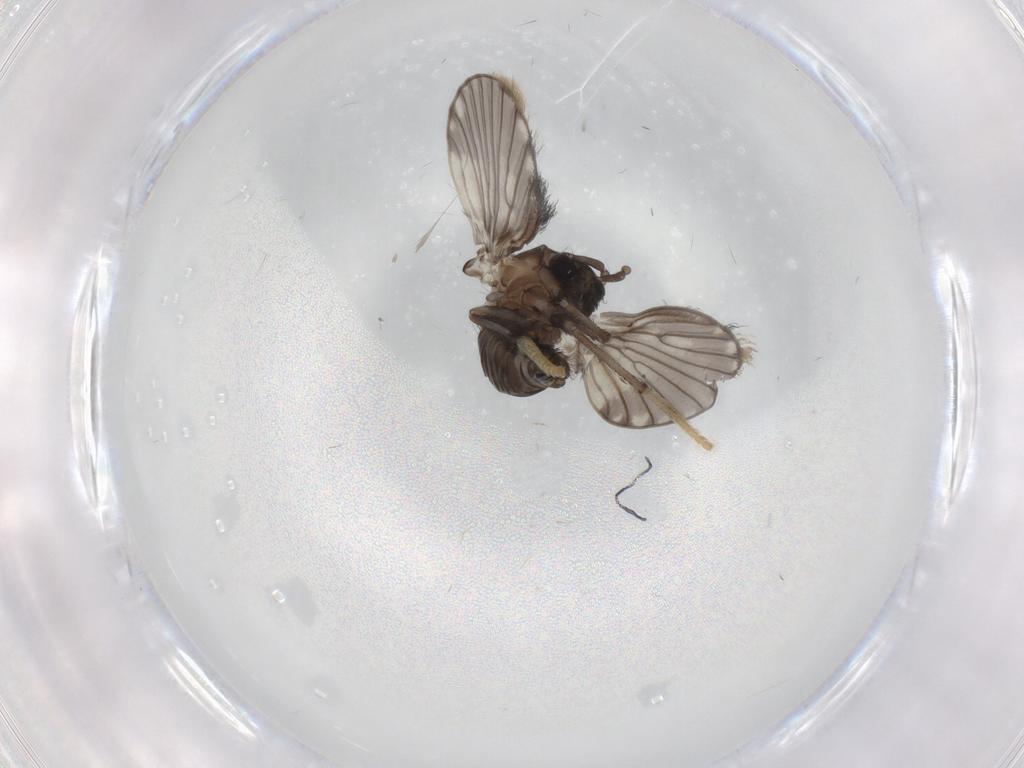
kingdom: Animalia
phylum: Arthropoda
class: Insecta
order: Diptera
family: Psychodidae
